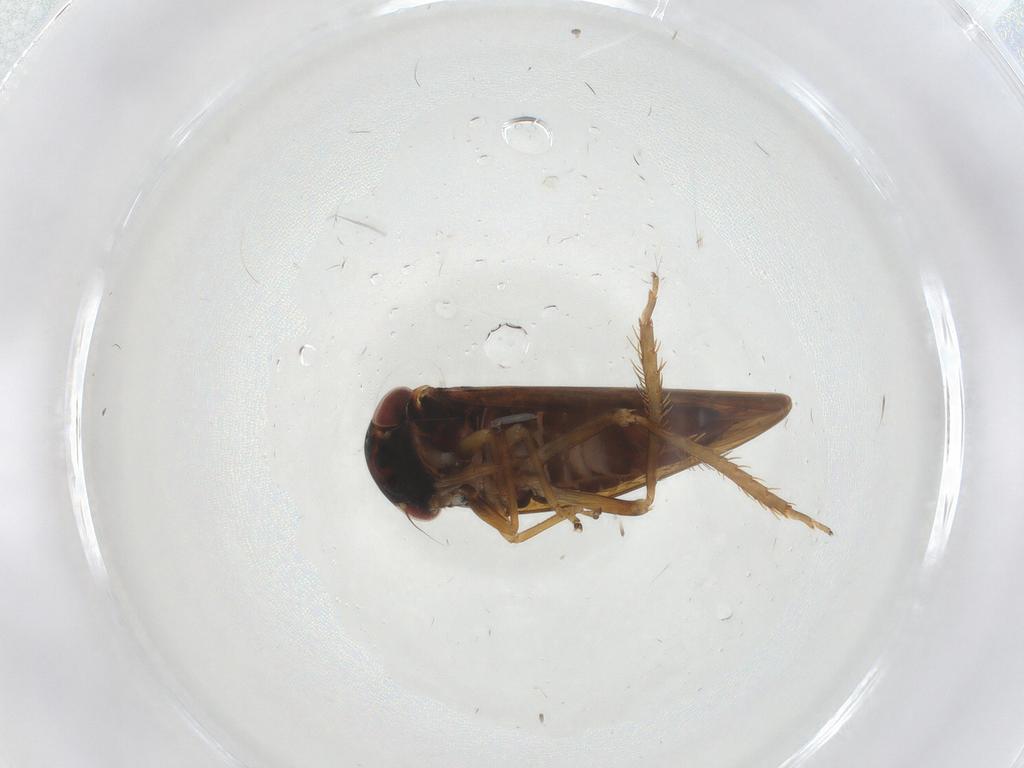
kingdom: Animalia
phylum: Arthropoda
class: Insecta
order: Hemiptera
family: Cicadellidae
